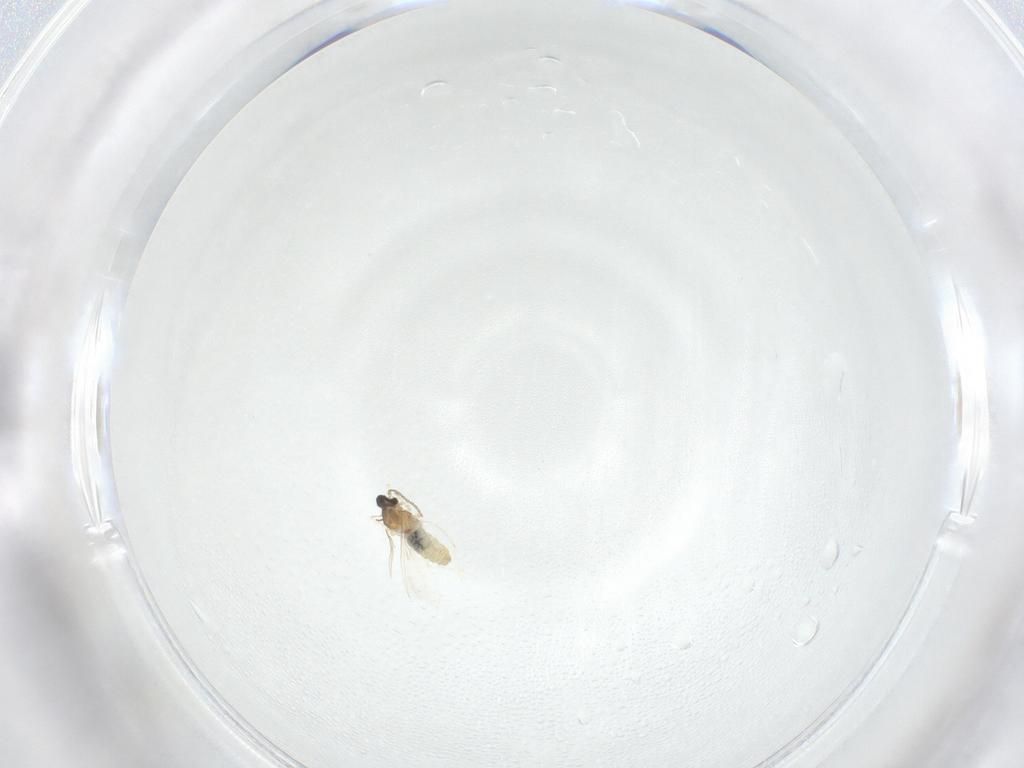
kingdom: Animalia
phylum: Arthropoda
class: Insecta
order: Diptera
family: Cecidomyiidae
